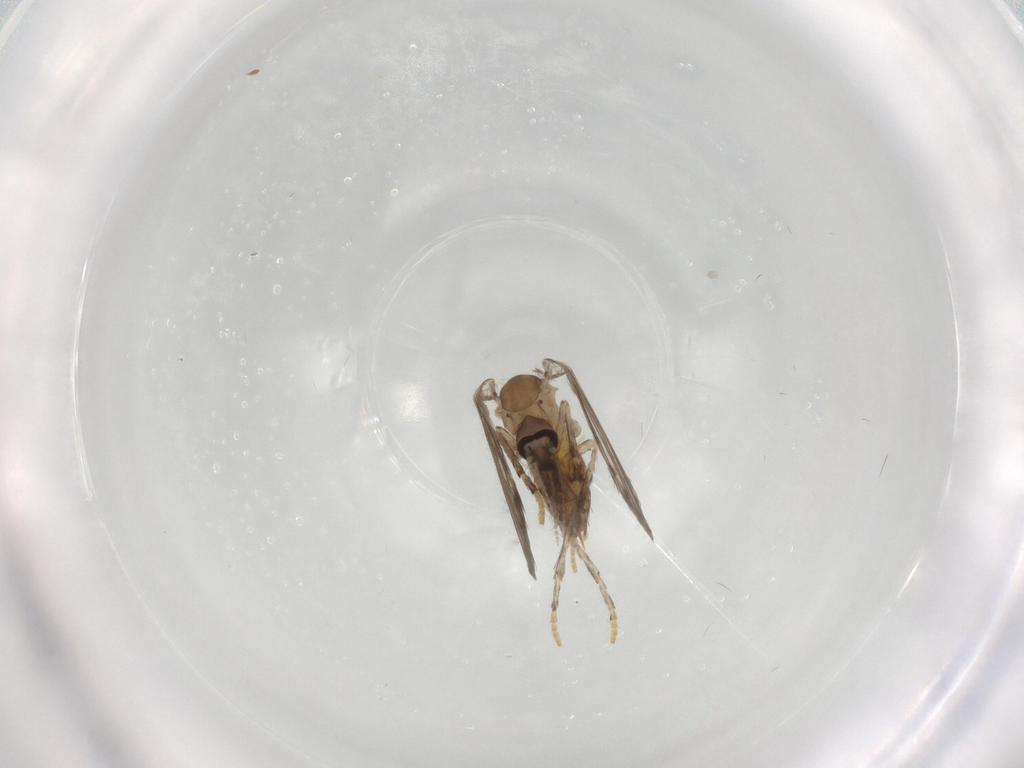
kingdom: Animalia
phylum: Arthropoda
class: Insecta
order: Diptera
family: Psychodidae
